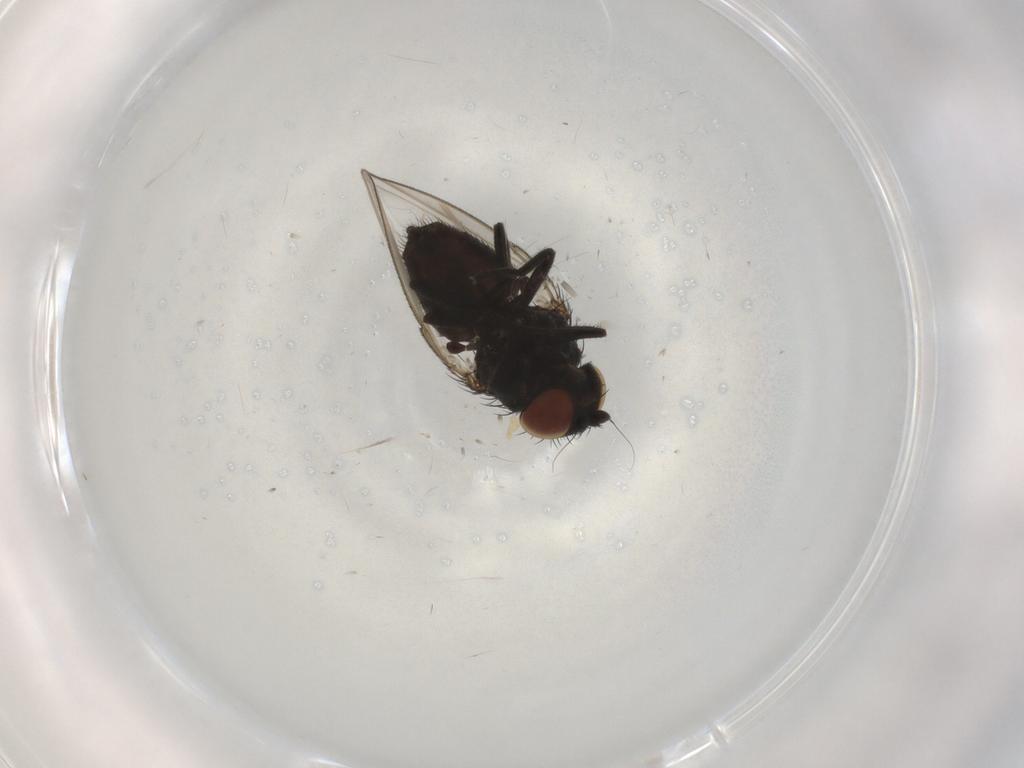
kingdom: Animalia
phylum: Arthropoda
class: Insecta
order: Diptera
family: Milichiidae
